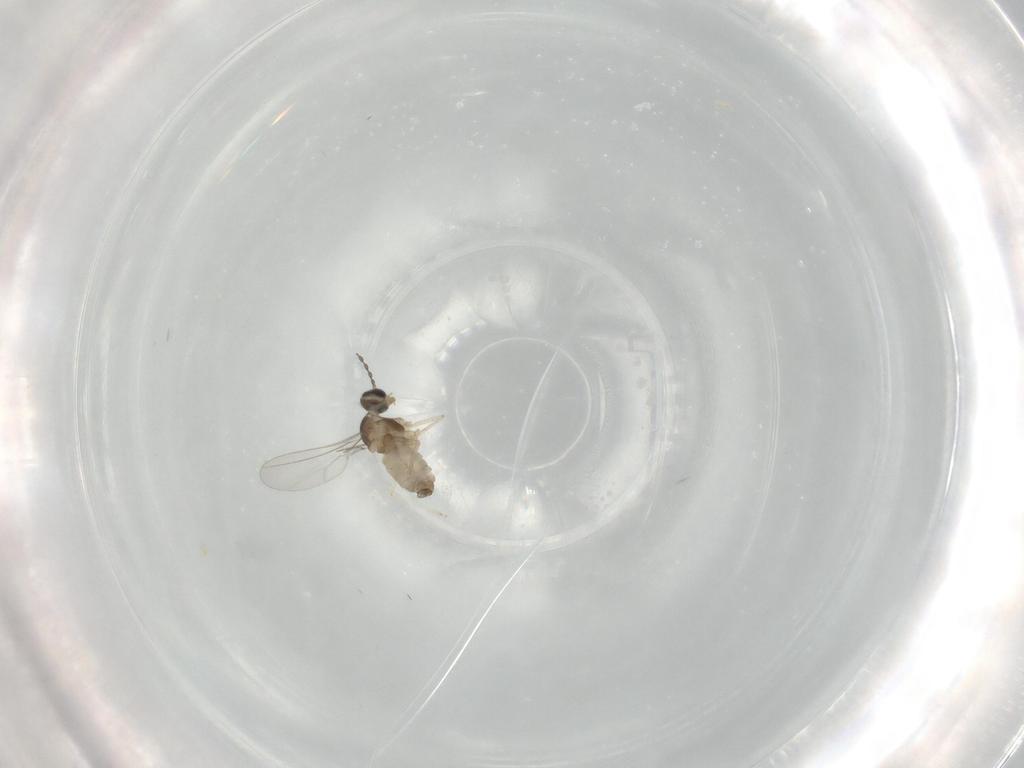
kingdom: Animalia
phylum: Arthropoda
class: Insecta
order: Diptera
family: Cecidomyiidae
